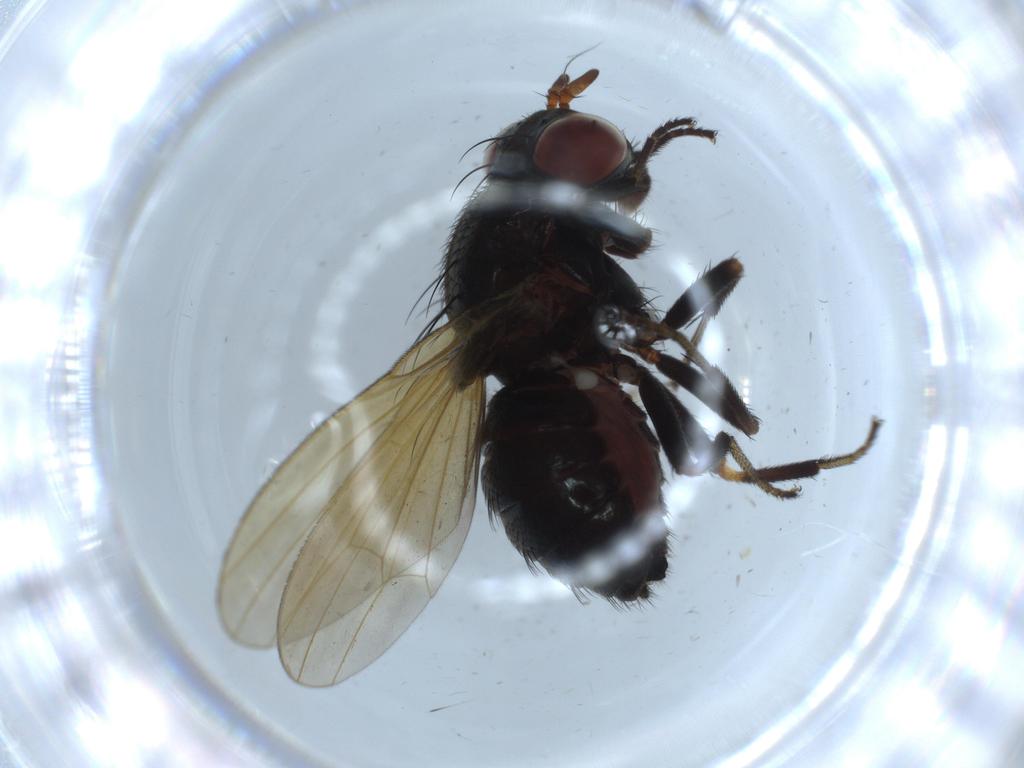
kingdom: Animalia
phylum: Arthropoda
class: Insecta
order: Diptera
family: Lauxaniidae
